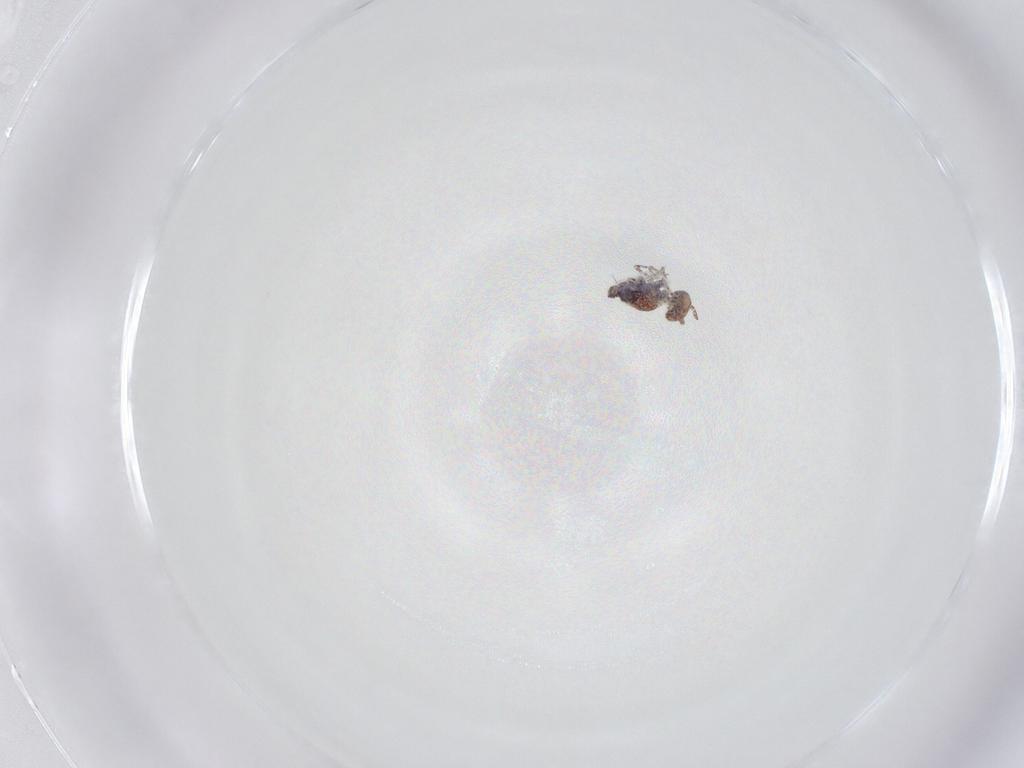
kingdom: Animalia
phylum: Arthropoda
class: Collembola
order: Symphypleona
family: Bourletiellidae
